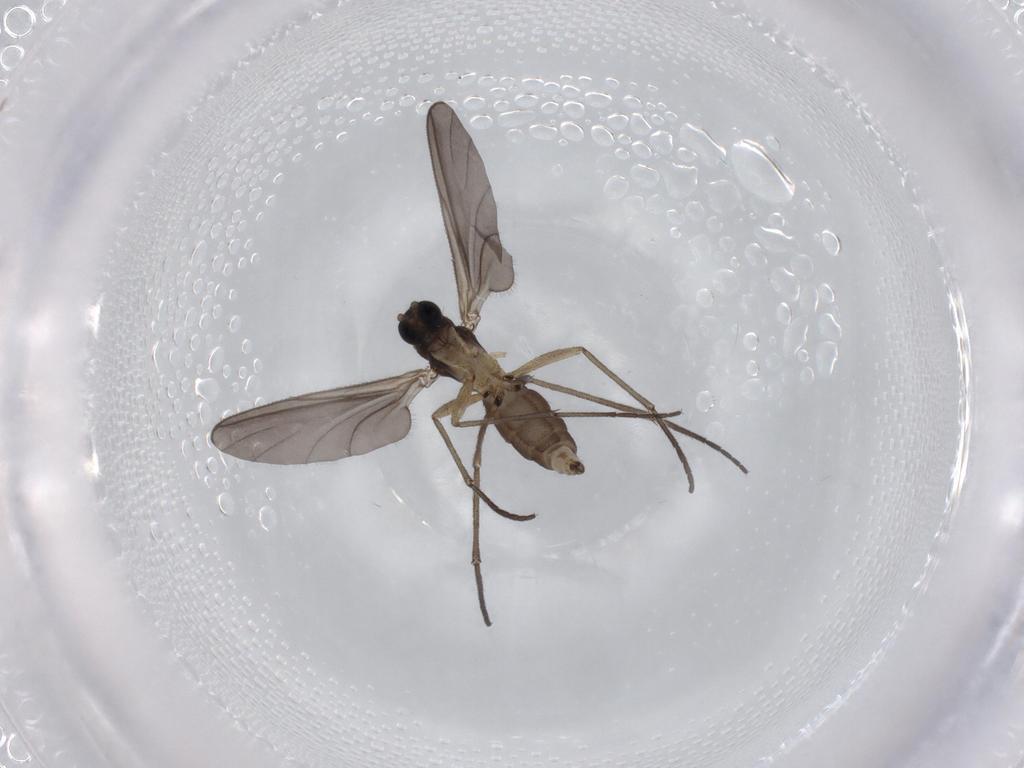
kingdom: Animalia
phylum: Arthropoda
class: Insecta
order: Diptera
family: Sciaridae
